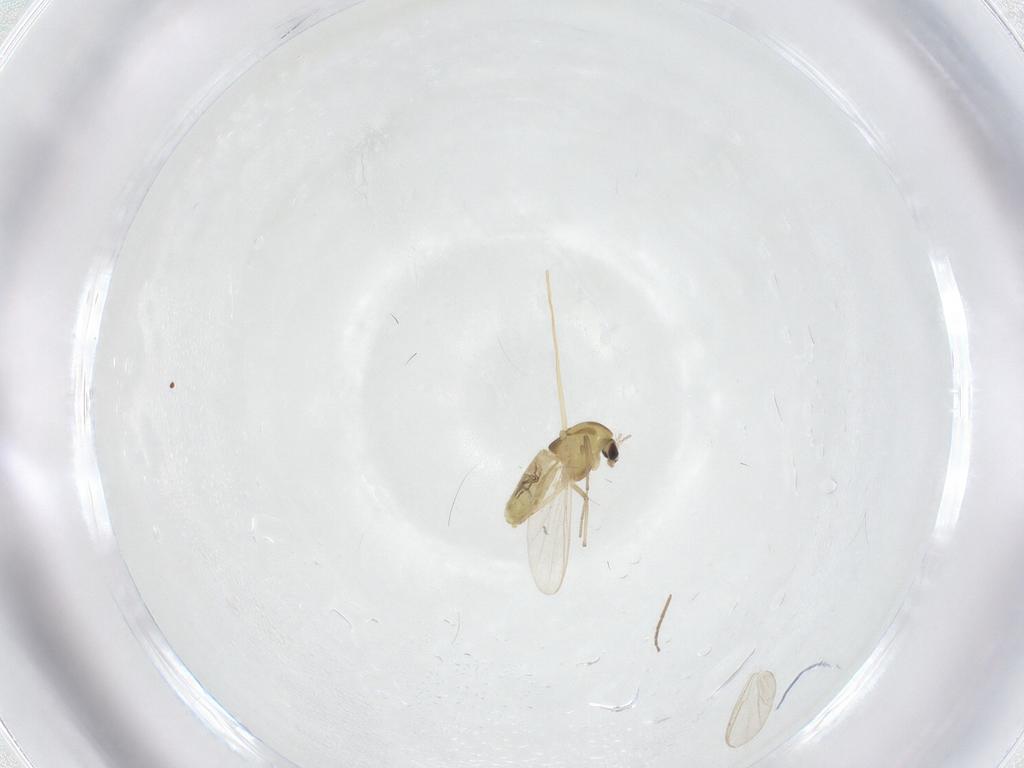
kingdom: Animalia
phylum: Arthropoda
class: Insecta
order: Diptera
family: Chironomidae
